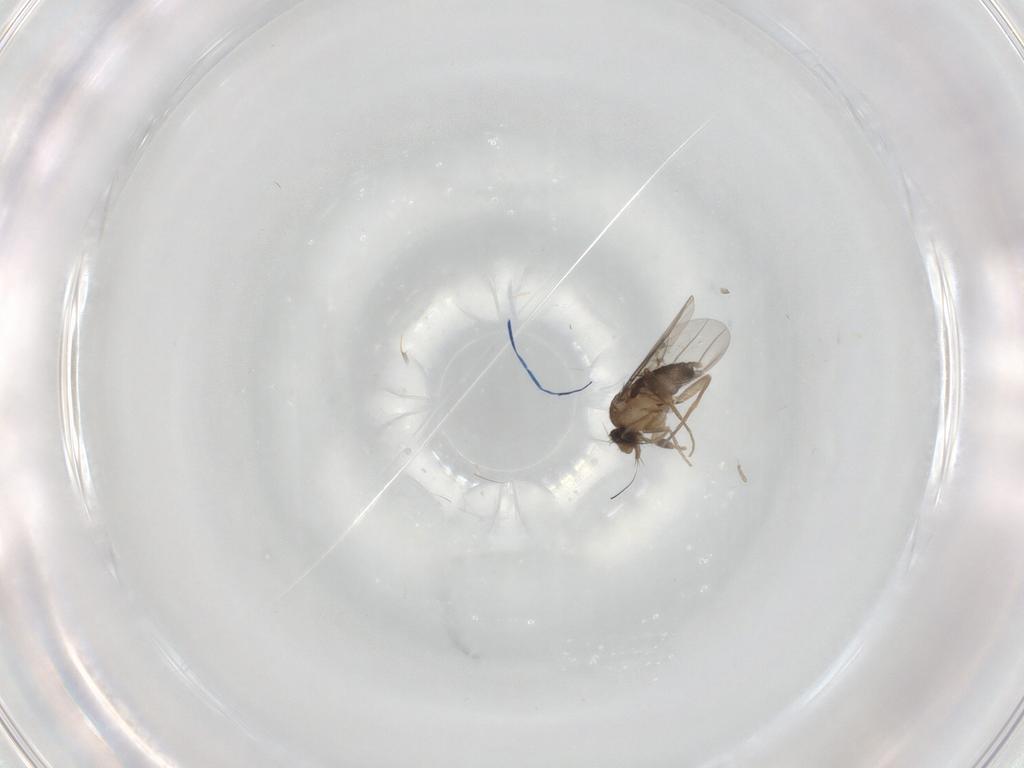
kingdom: Animalia
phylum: Arthropoda
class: Insecta
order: Diptera
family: Phoridae
